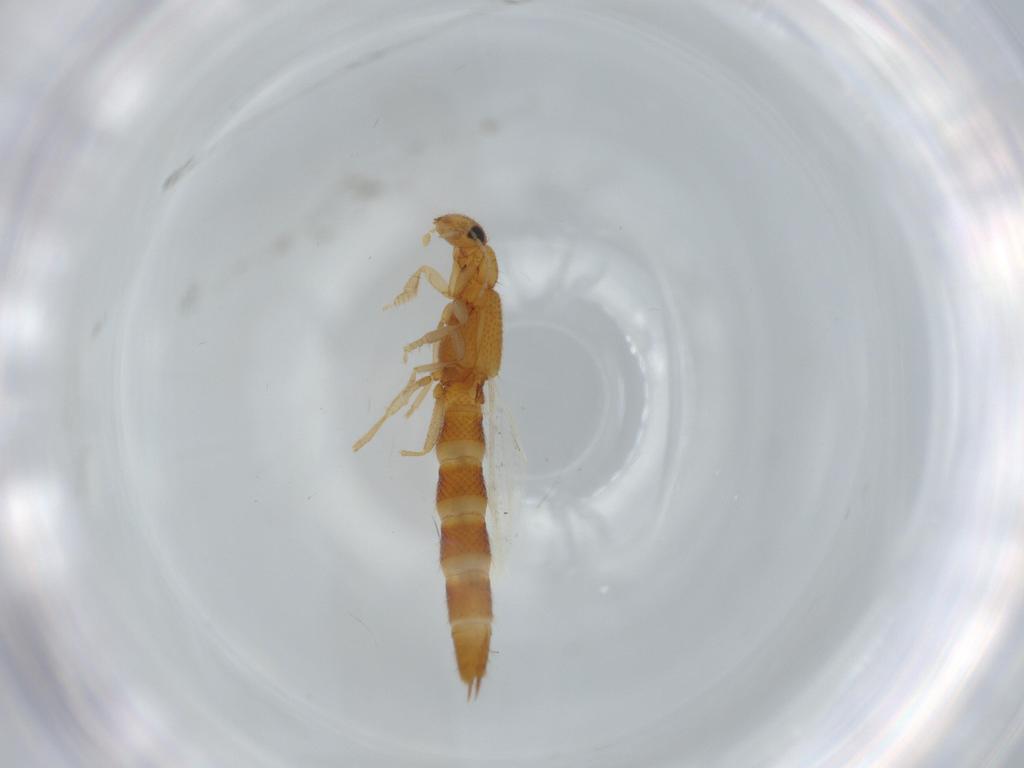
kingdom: Animalia
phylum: Arthropoda
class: Insecta
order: Coleoptera
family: Staphylinidae
